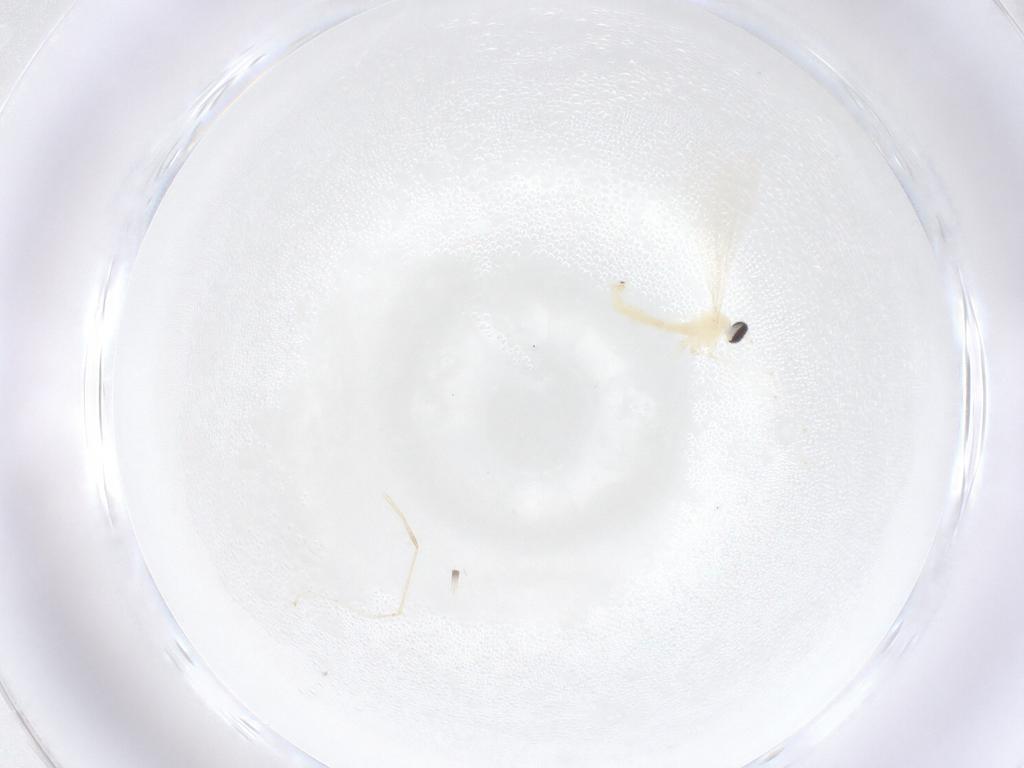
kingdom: Animalia
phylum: Arthropoda
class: Insecta
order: Diptera
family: Cecidomyiidae
